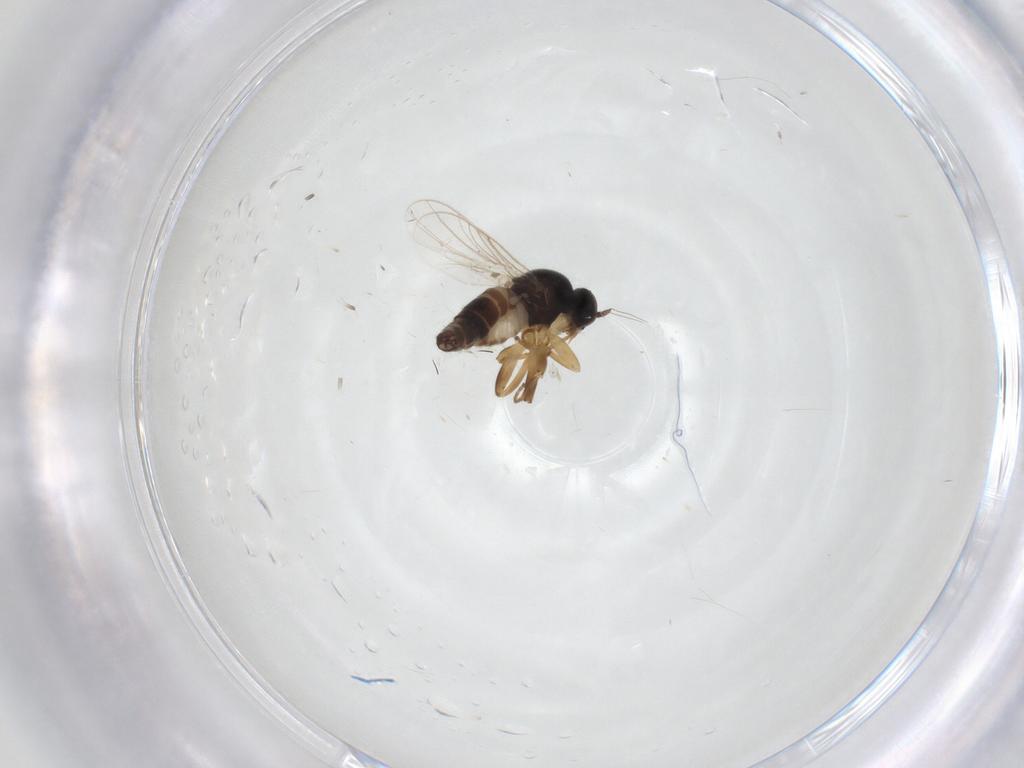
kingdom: Animalia
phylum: Arthropoda
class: Insecta
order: Diptera
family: Hybotidae
